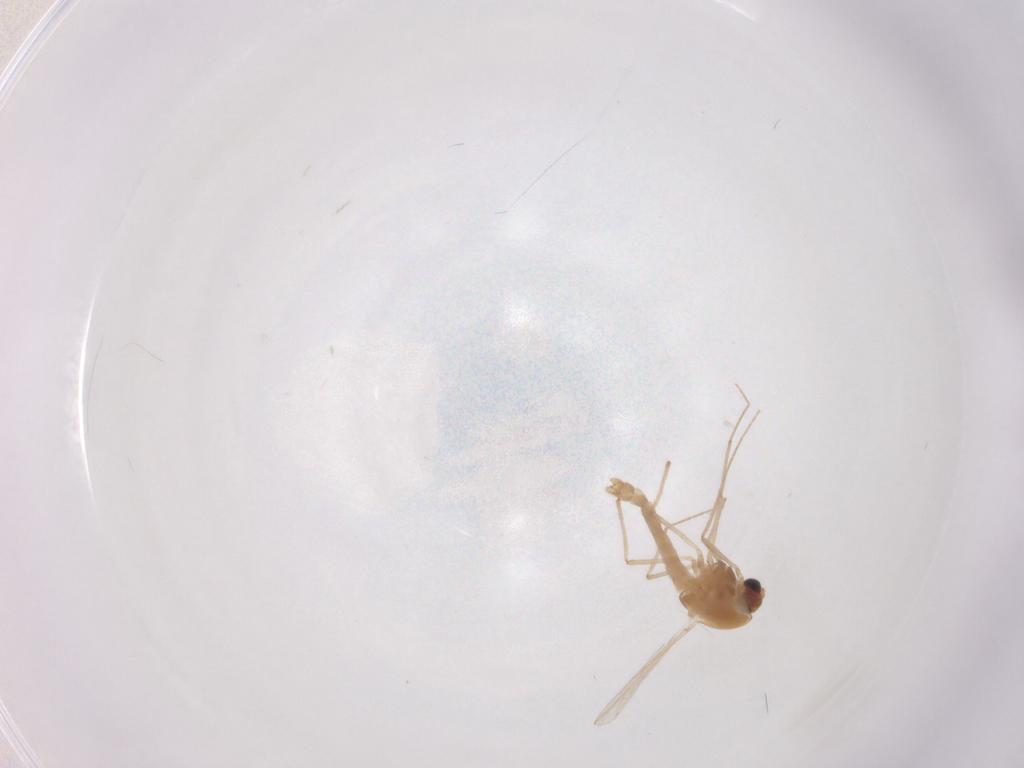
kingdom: Animalia
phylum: Arthropoda
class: Insecta
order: Diptera
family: Chironomidae
